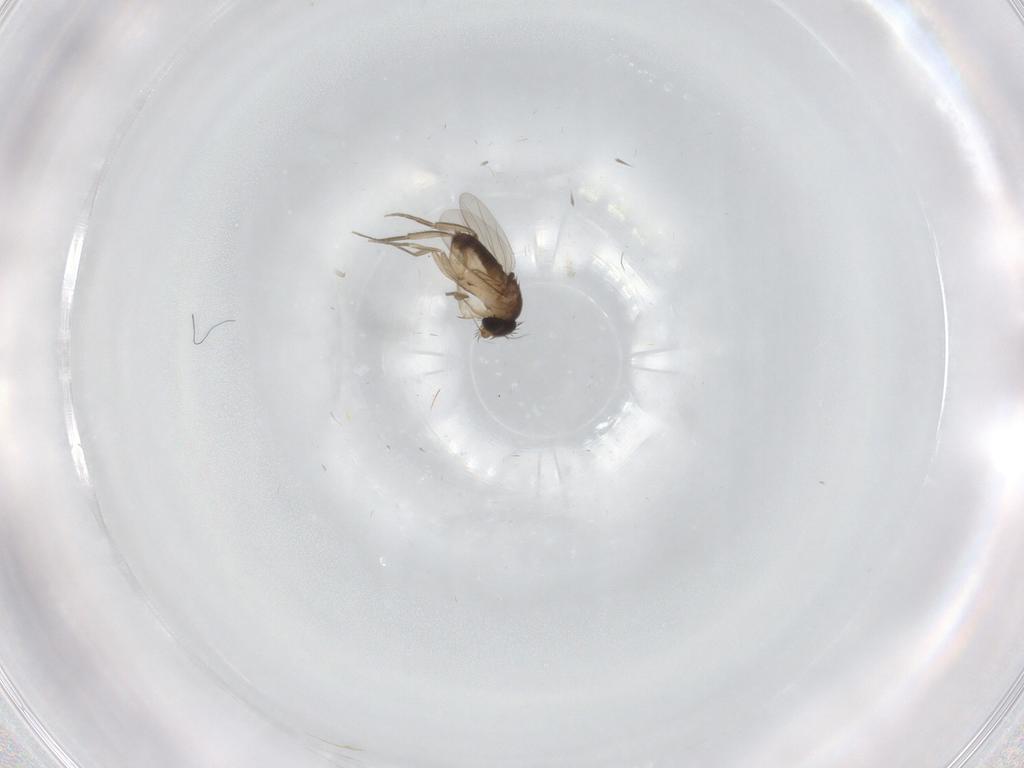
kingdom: Animalia
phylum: Arthropoda
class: Insecta
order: Diptera
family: Phoridae
